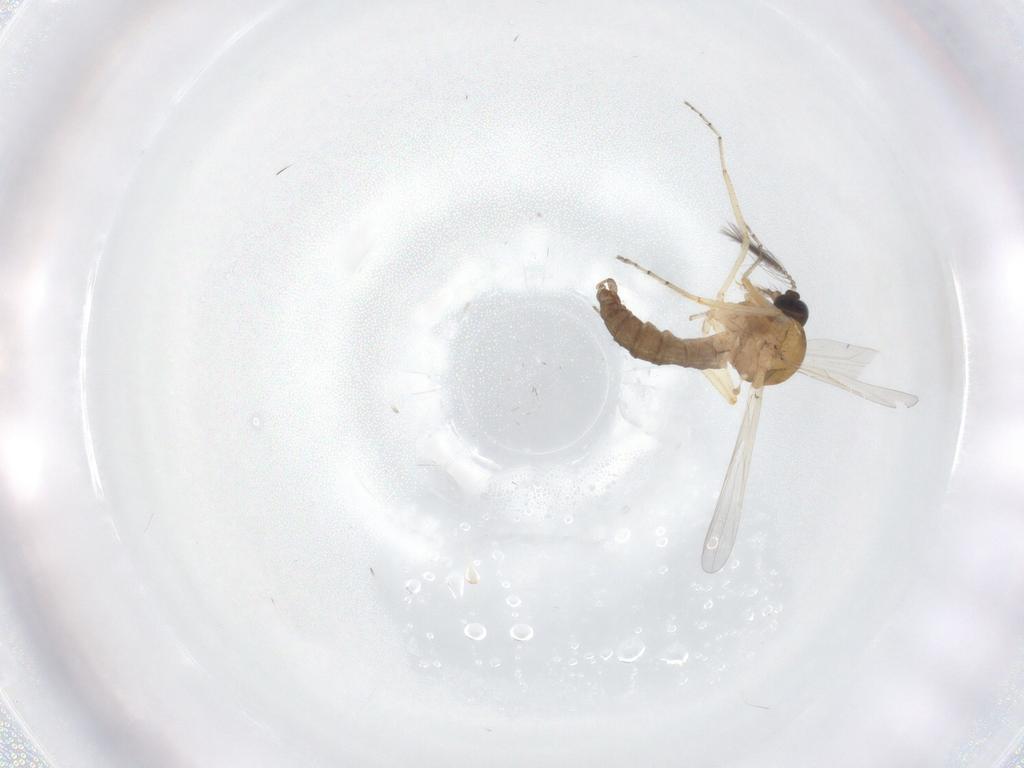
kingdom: Animalia
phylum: Arthropoda
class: Insecta
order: Diptera
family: Ceratopogonidae
